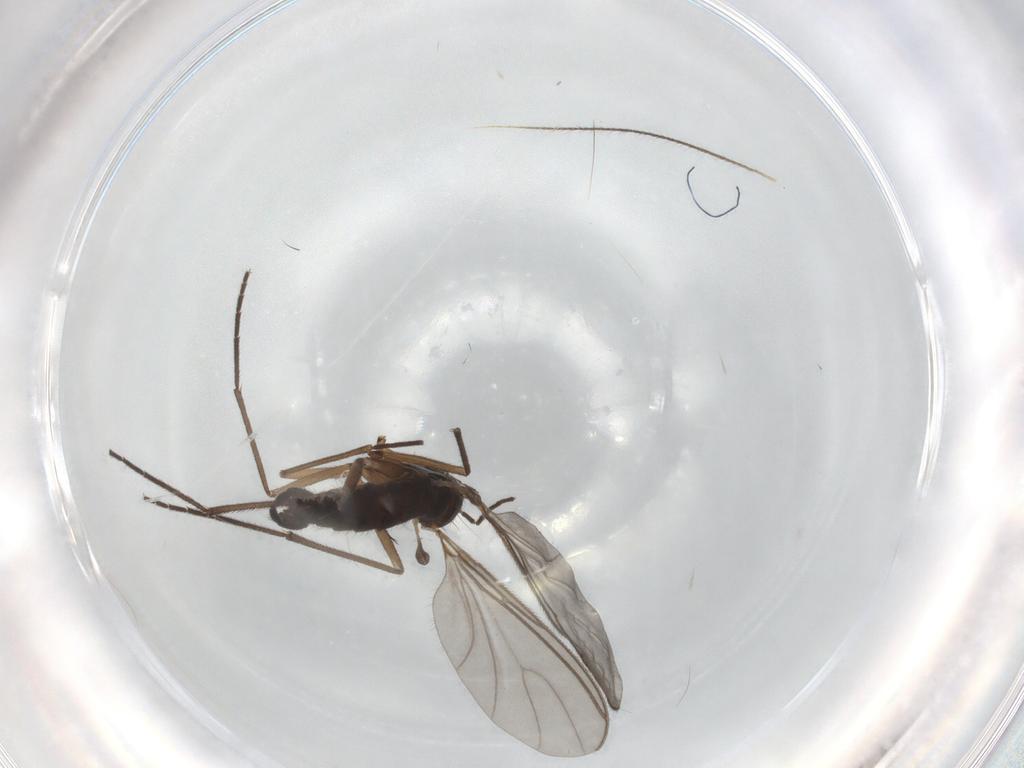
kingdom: Animalia
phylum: Arthropoda
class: Insecta
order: Diptera
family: Sciaridae
